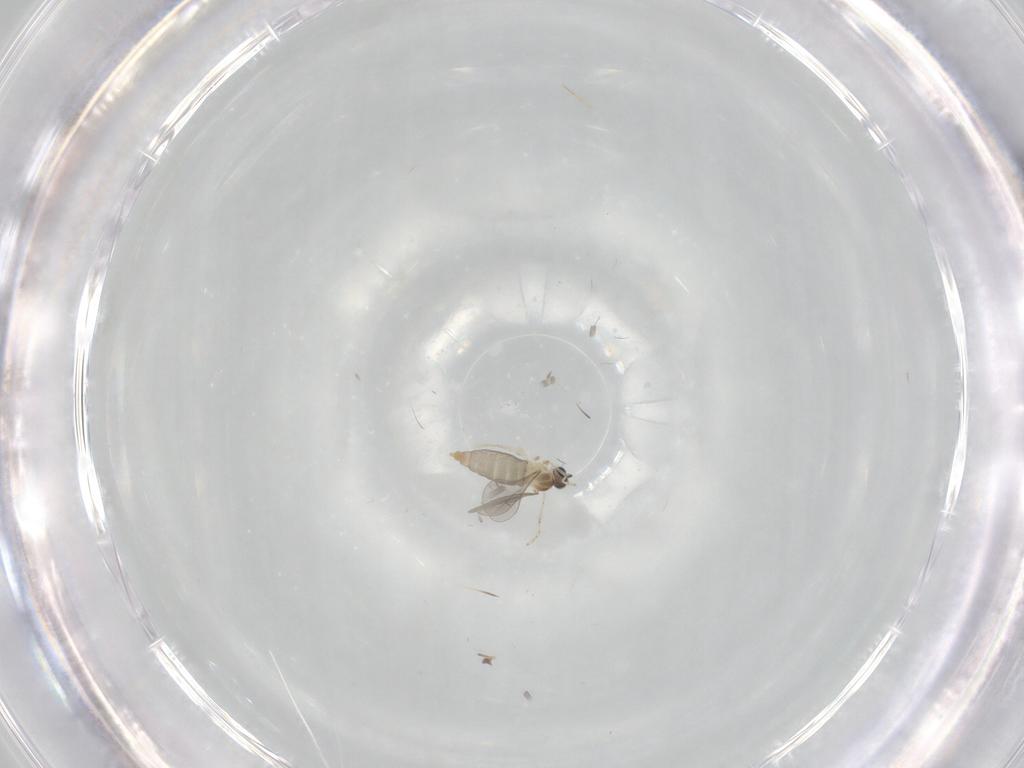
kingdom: Animalia
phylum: Arthropoda
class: Insecta
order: Diptera
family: Cecidomyiidae
